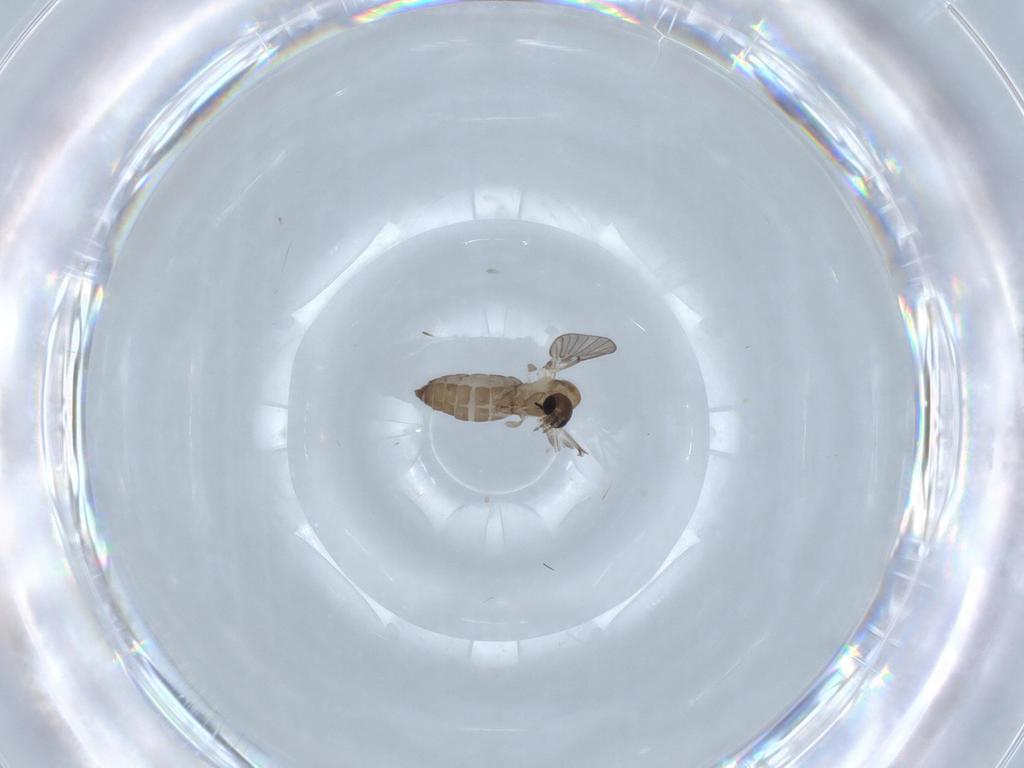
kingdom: Animalia
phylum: Arthropoda
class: Insecta
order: Diptera
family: Psychodidae
